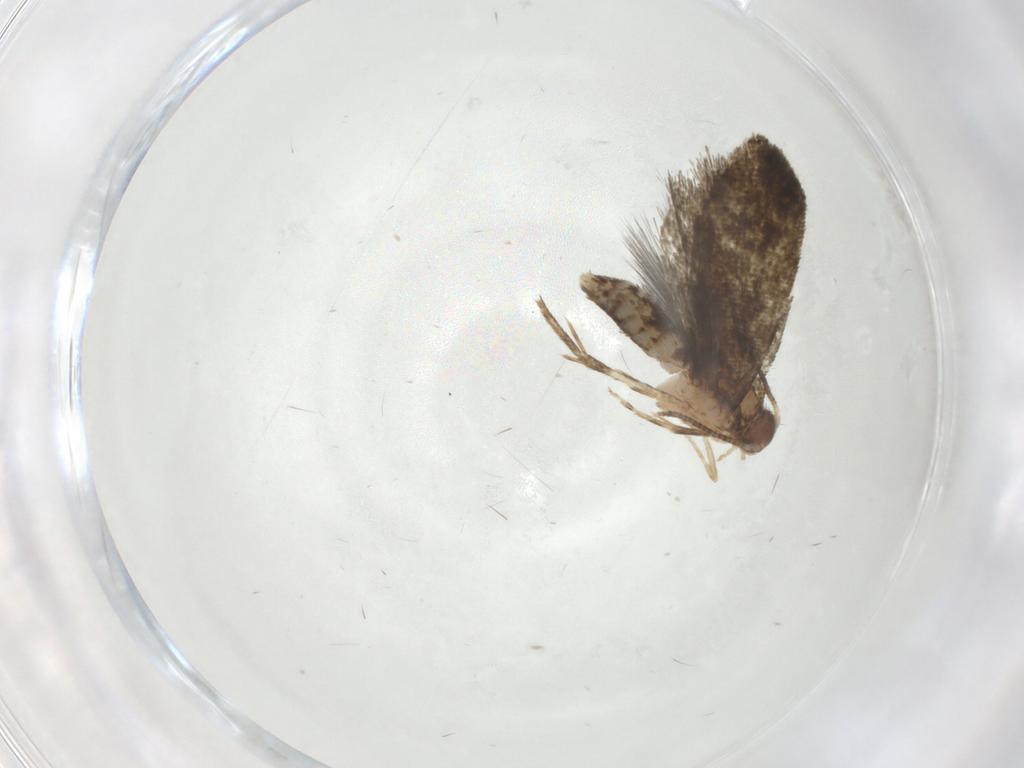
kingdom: Animalia
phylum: Arthropoda
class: Insecta
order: Lepidoptera
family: Tineidae
